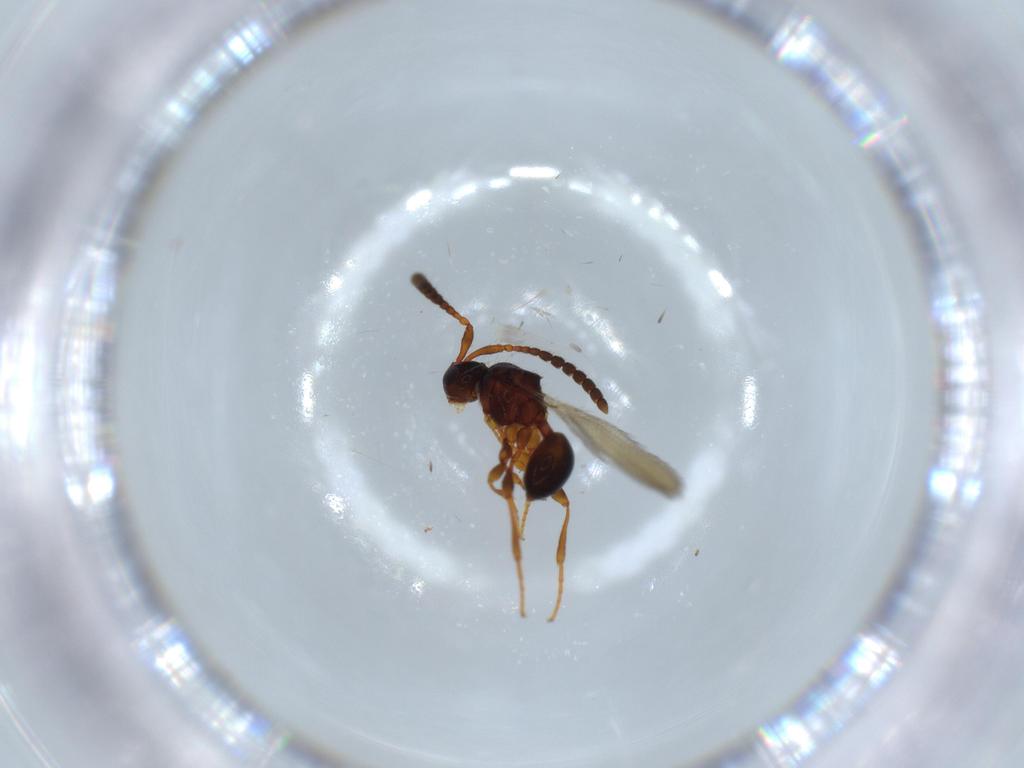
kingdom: Animalia
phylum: Arthropoda
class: Insecta
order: Hymenoptera
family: Diapriidae
